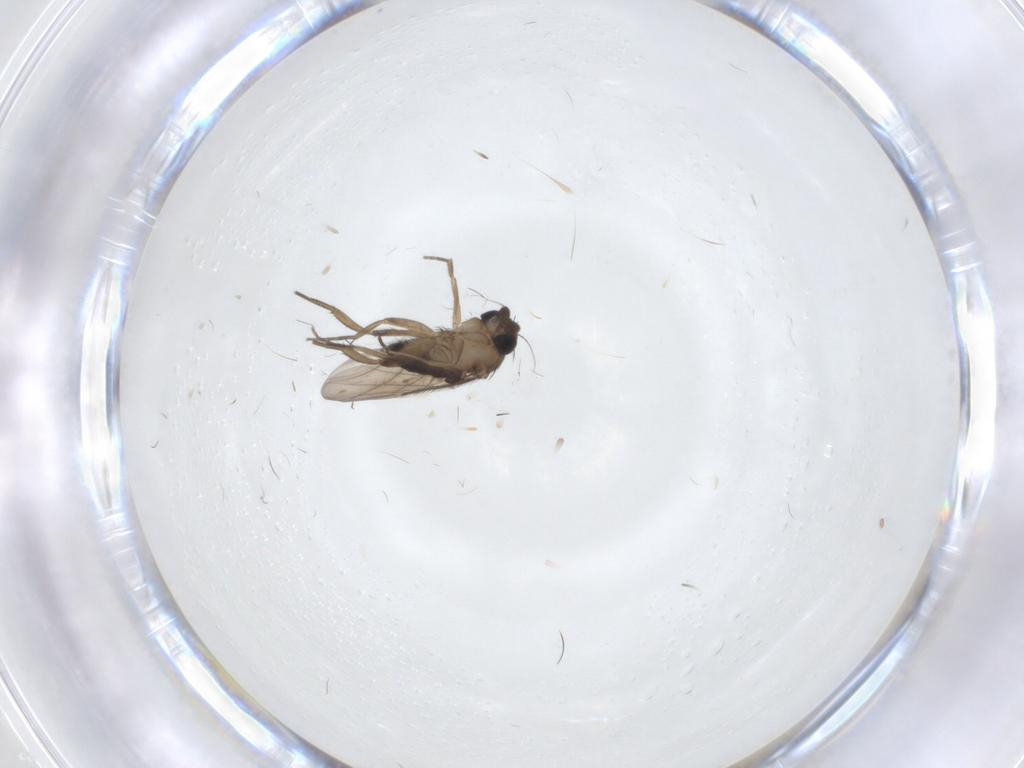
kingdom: Animalia
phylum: Arthropoda
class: Insecta
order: Diptera
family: Phoridae
